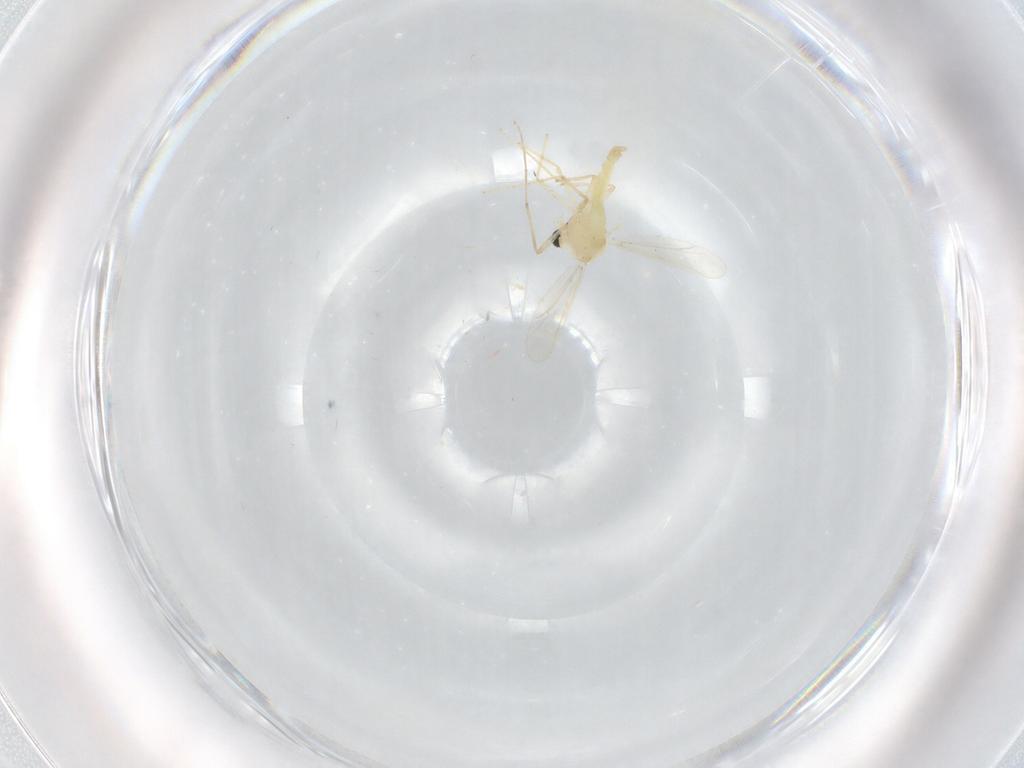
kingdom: Animalia
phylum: Arthropoda
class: Insecta
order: Diptera
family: Chironomidae
